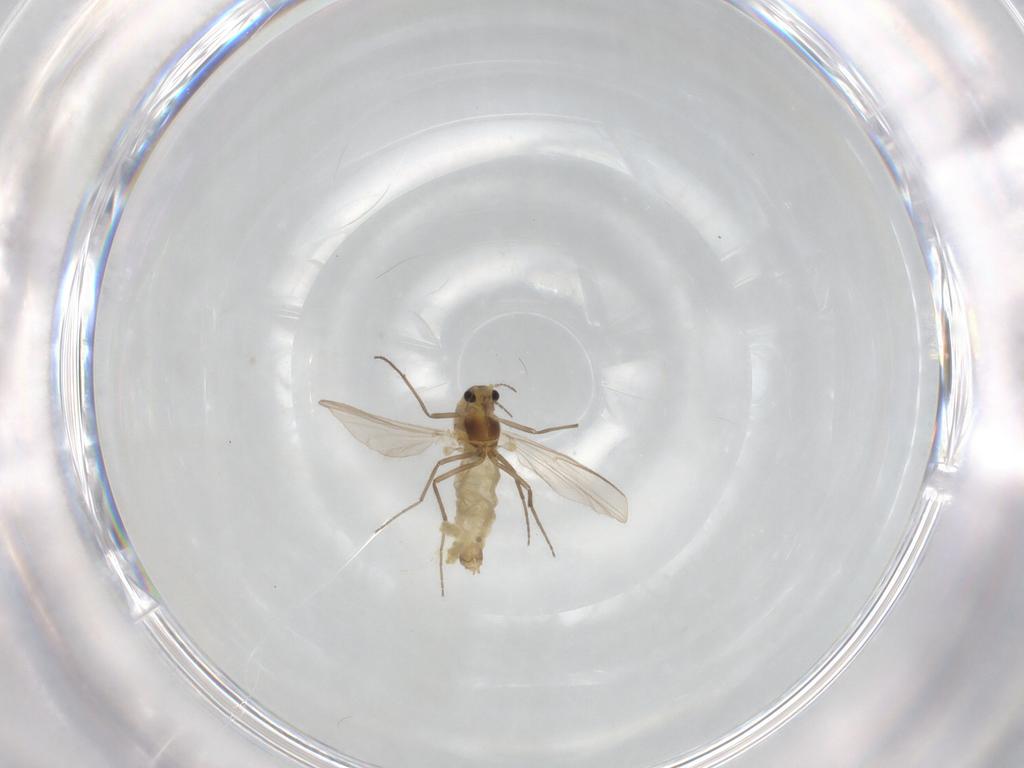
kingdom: Animalia
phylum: Arthropoda
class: Insecta
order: Diptera
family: Chironomidae
